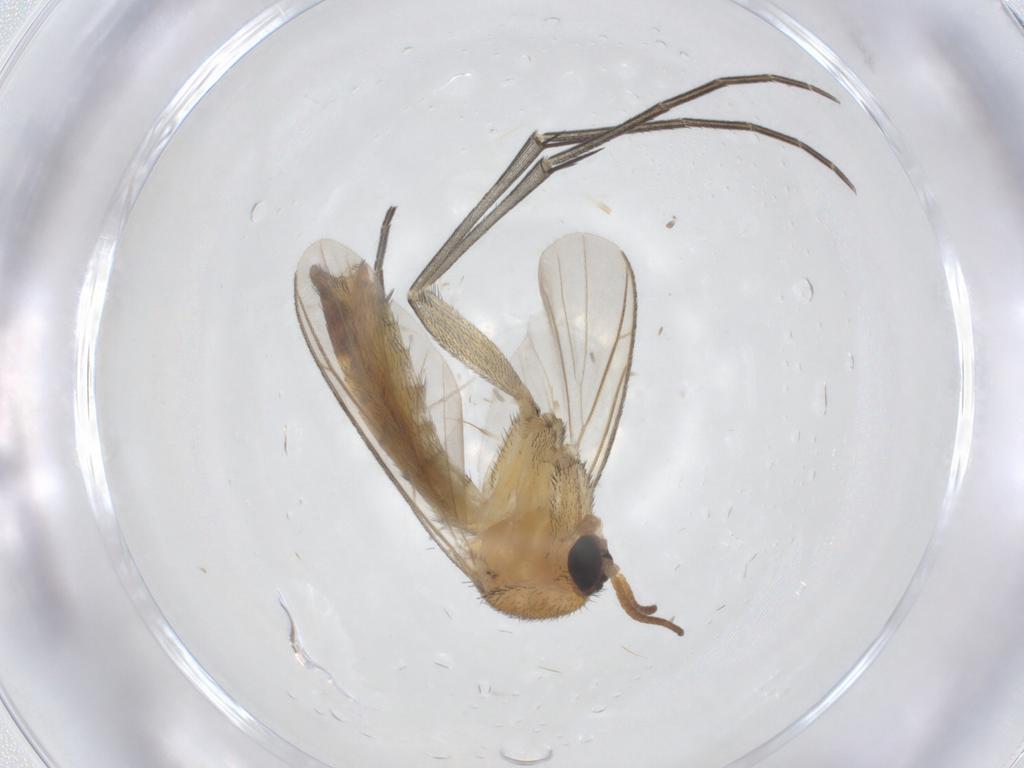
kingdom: Animalia
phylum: Arthropoda
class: Insecta
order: Diptera
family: Keroplatidae
